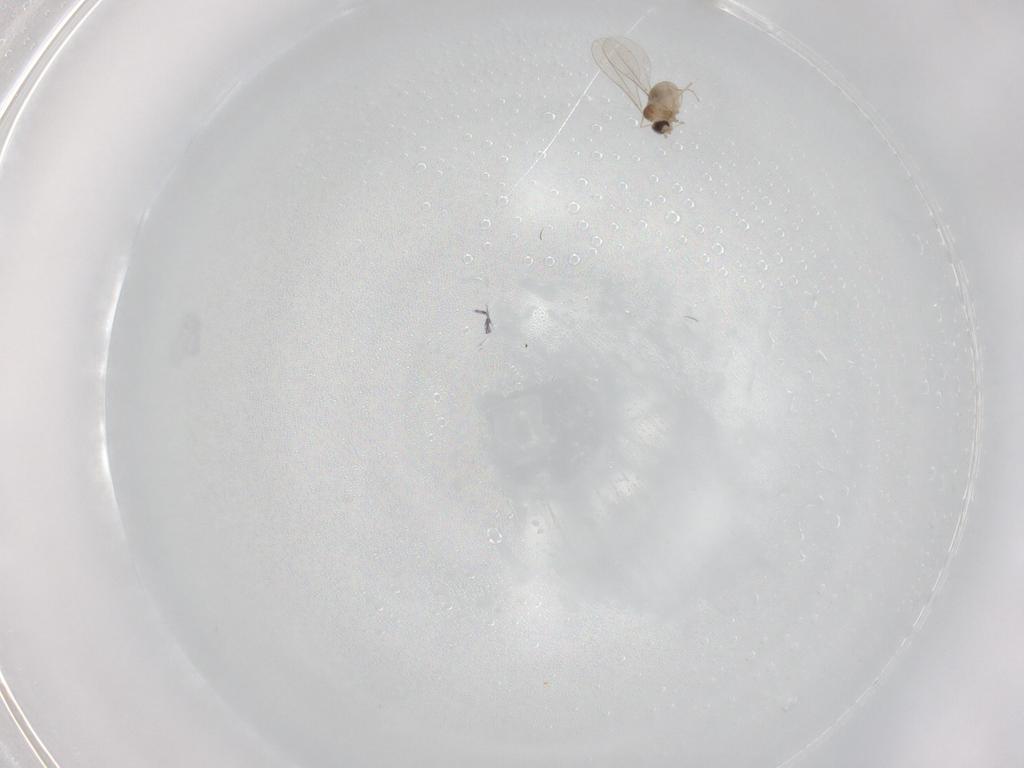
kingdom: Animalia
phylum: Arthropoda
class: Insecta
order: Diptera
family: Cecidomyiidae
